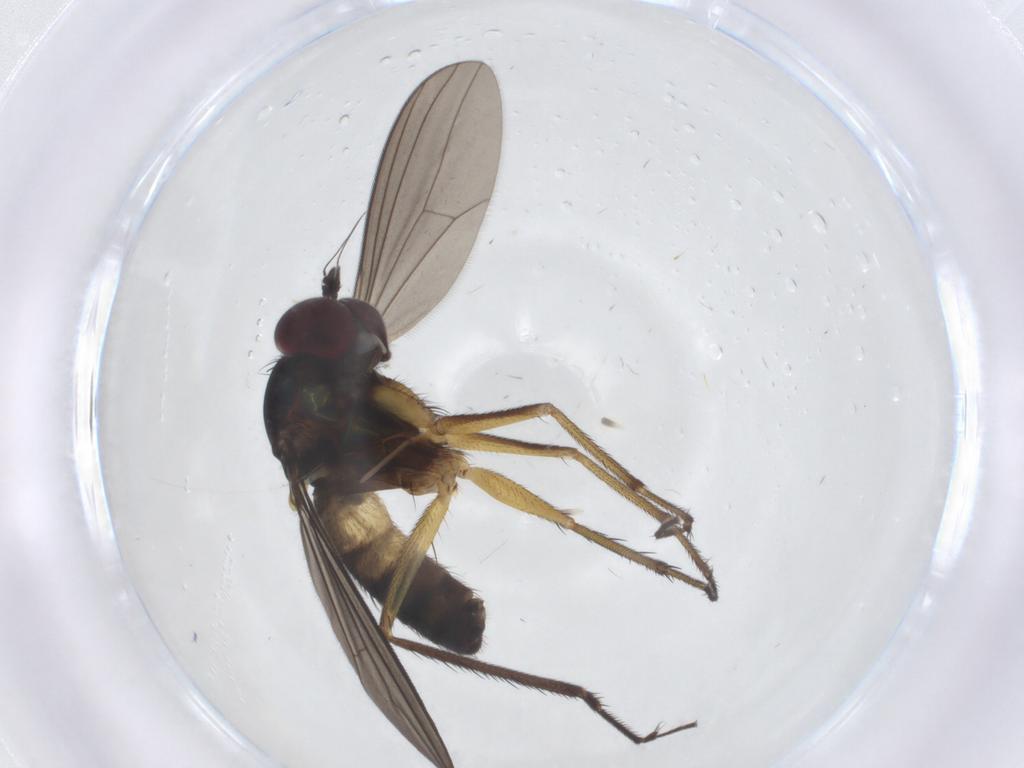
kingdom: Animalia
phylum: Arthropoda
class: Insecta
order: Diptera
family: Dolichopodidae
